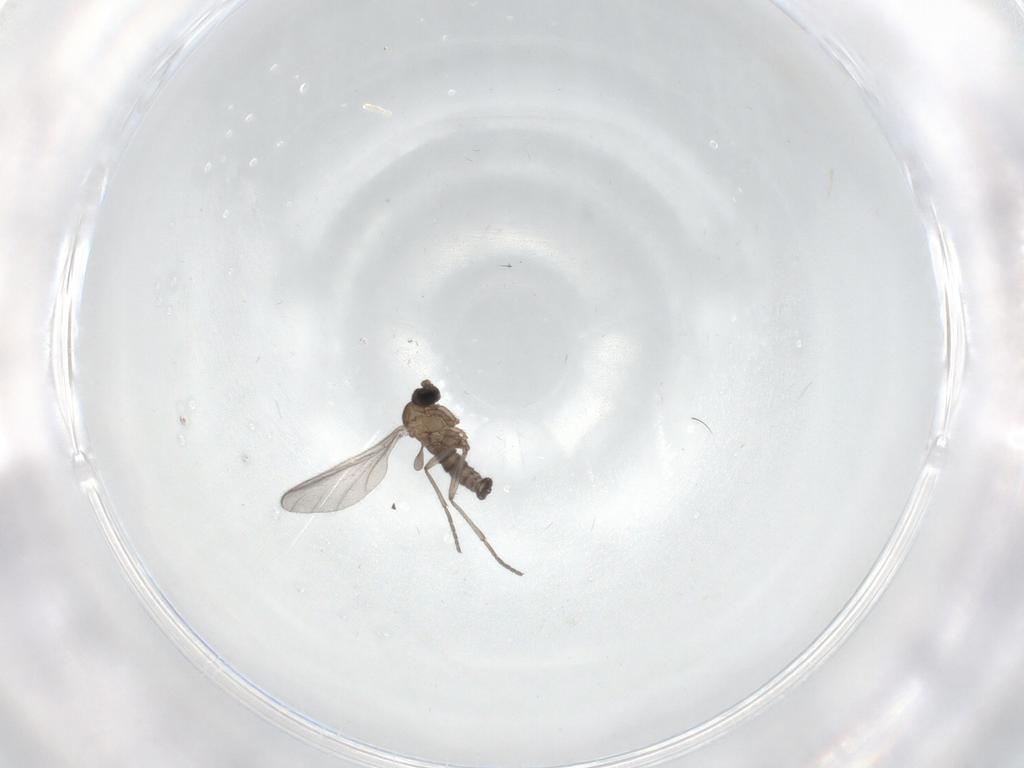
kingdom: Animalia
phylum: Arthropoda
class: Insecta
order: Diptera
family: Sciaridae
